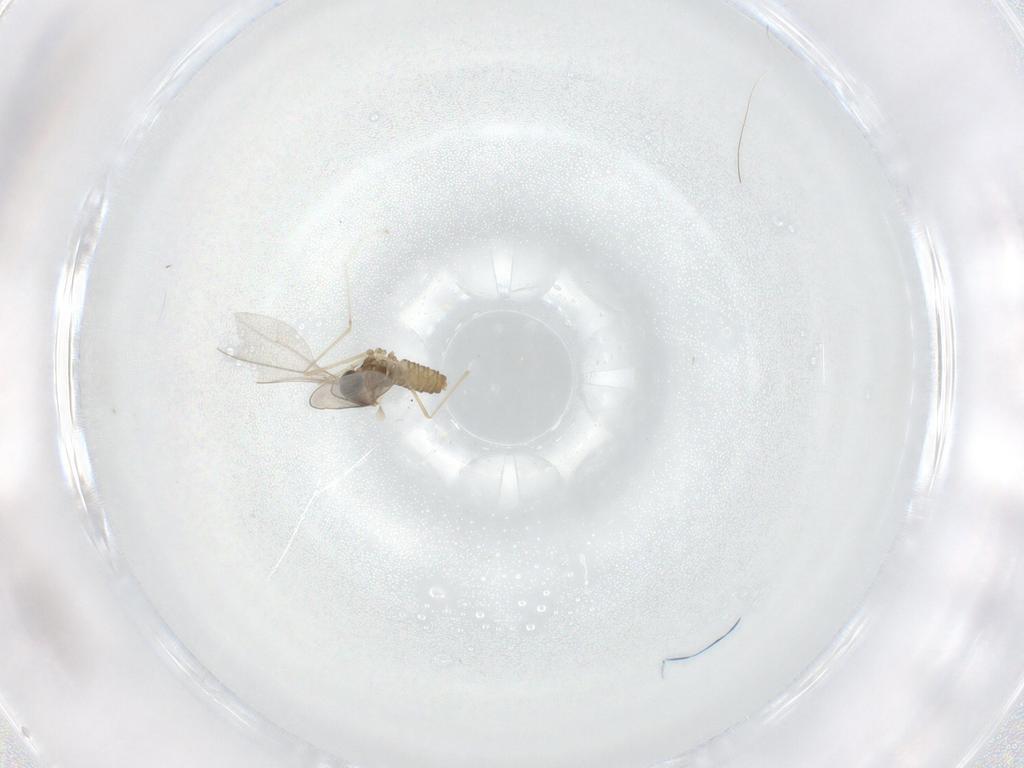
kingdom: Animalia
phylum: Arthropoda
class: Insecta
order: Diptera
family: Cecidomyiidae
